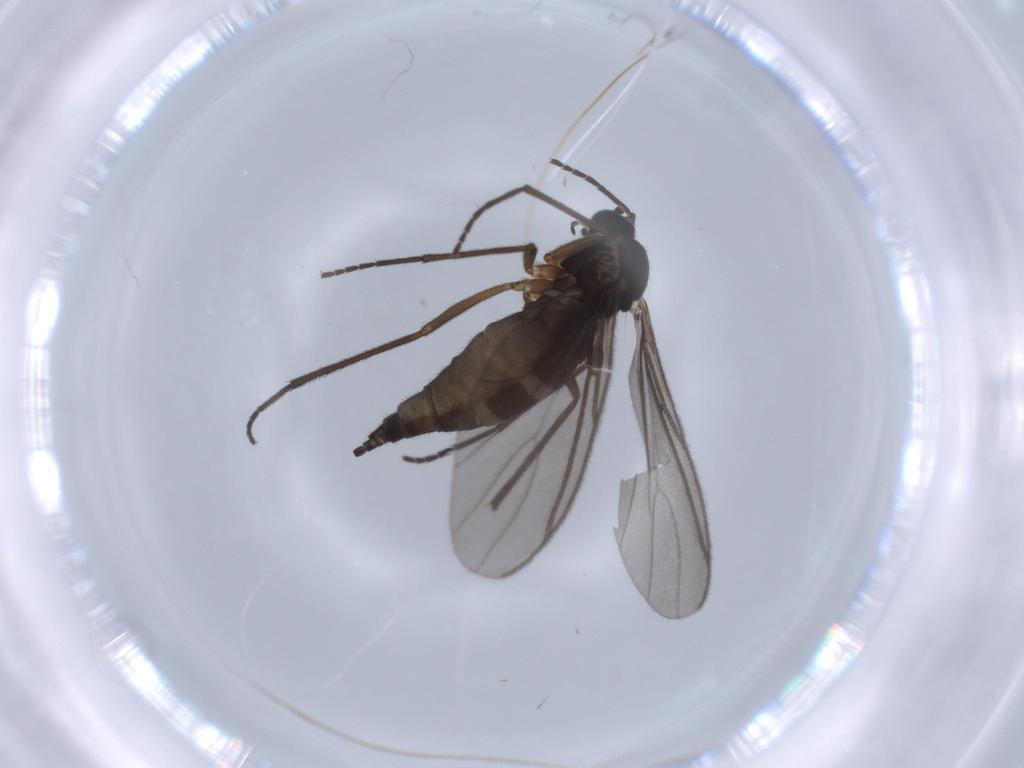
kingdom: Animalia
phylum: Arthropoda
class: Insecta
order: Diptera
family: Sciaridae
